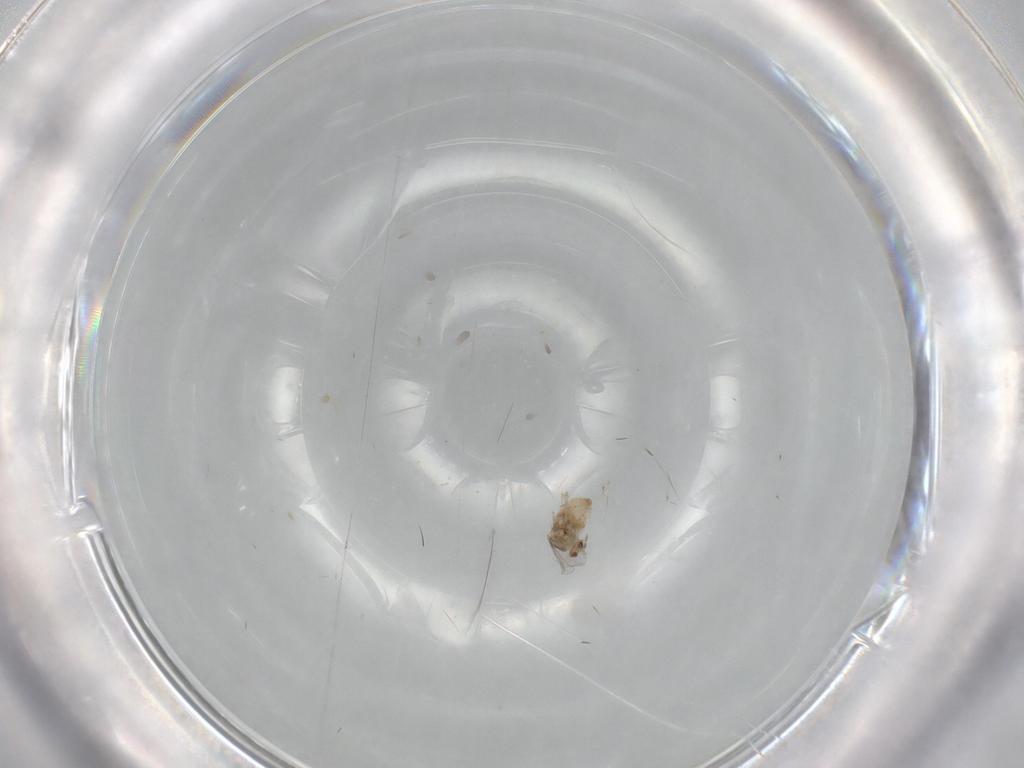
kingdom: Animalia
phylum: Arthropoda
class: Insecta
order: Diptera
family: Cecidomyiidae
